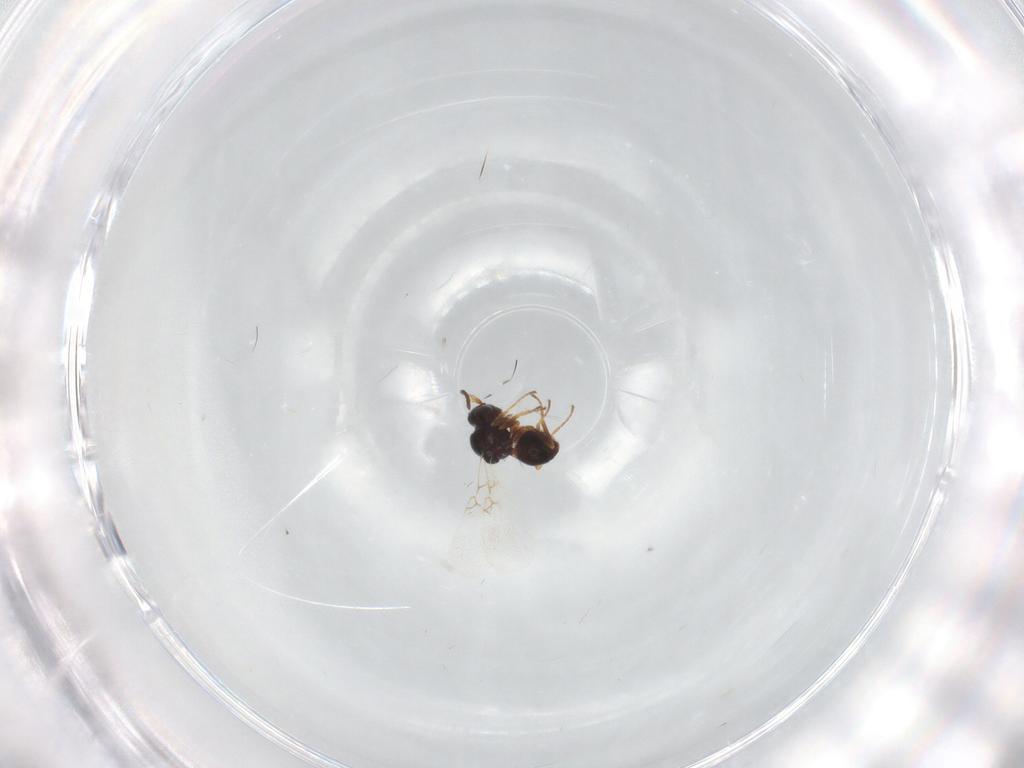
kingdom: Animalia
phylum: Arthropoda
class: Insecta
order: Hymenoptera
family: Figitidae
